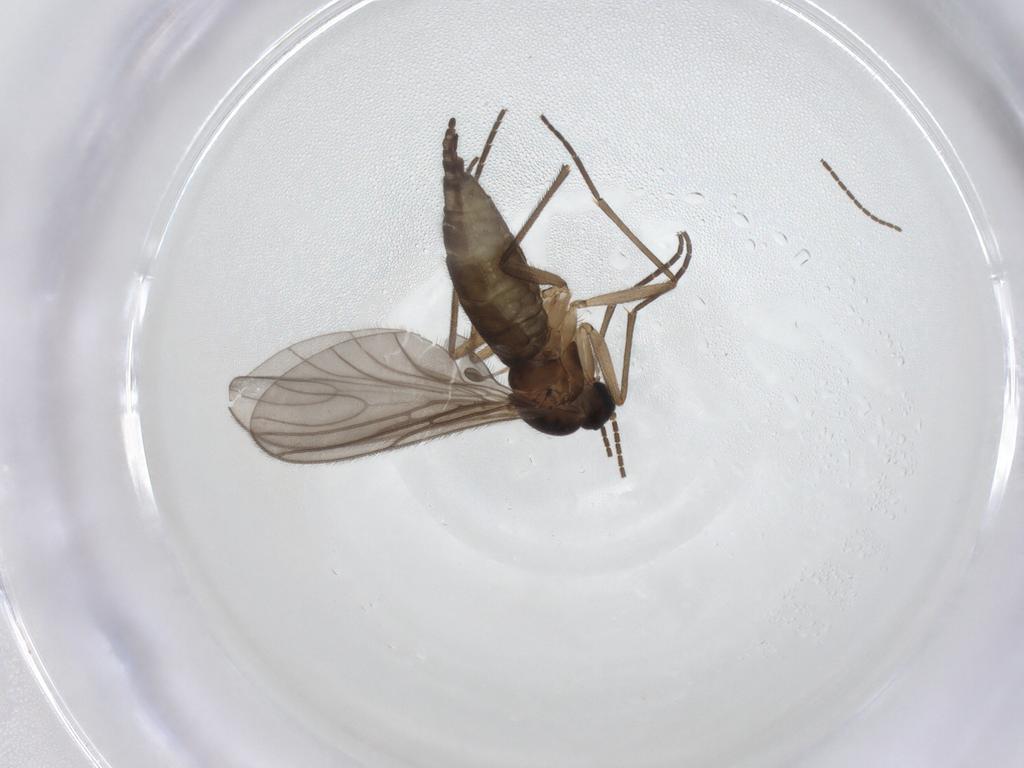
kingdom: Animalia
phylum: Arthropoda
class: Insecta
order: Diptera
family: Sciaridae
